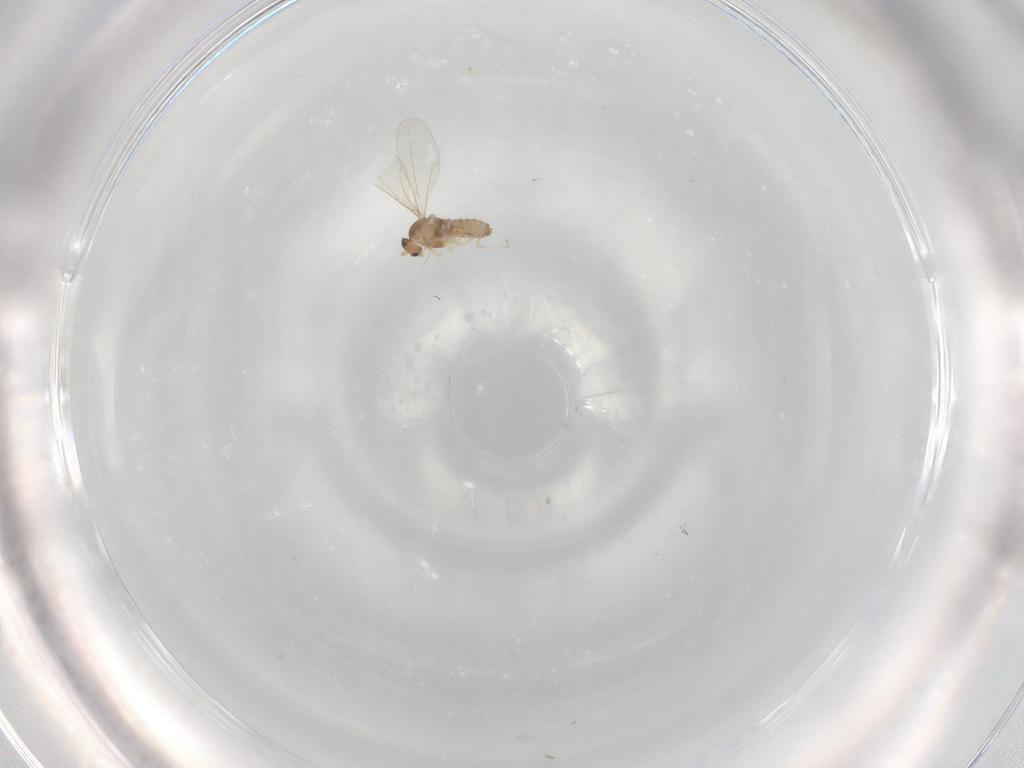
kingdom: Animalia
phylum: Arthropoda
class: Insecta
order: Diptera
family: Cecidomyiidae
